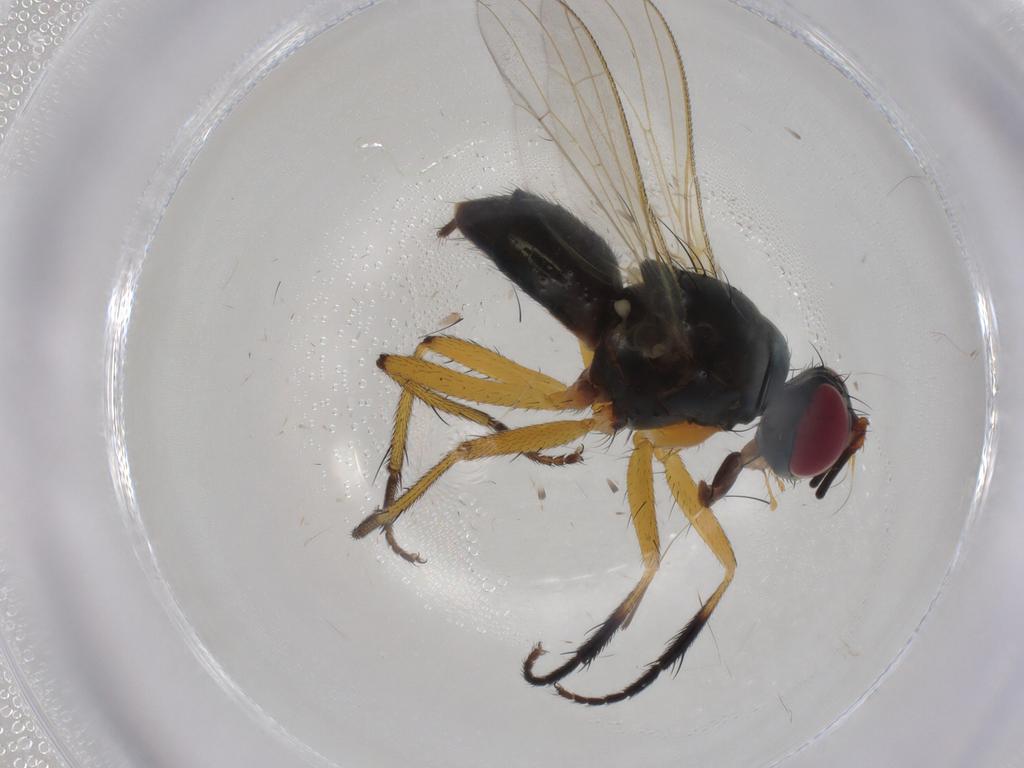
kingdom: Animalia
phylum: Arthropoda
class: Insecta
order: Diptera
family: Muscidae
